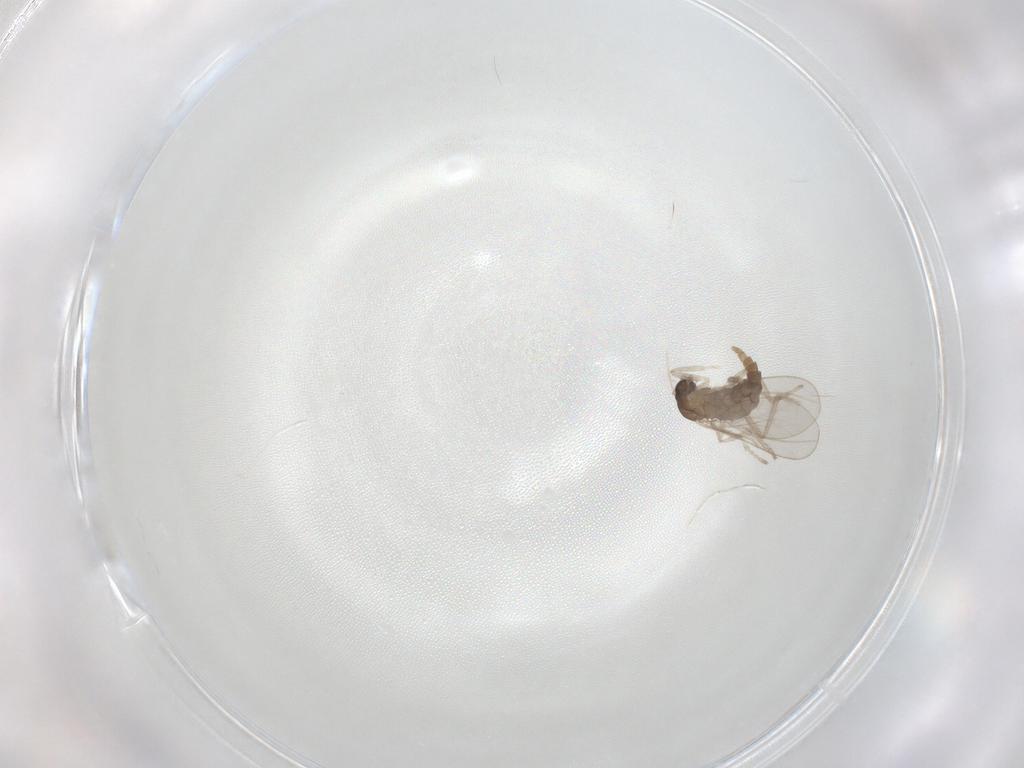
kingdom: Animalia
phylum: Arthropoda
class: Insecta
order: Diptera
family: Cecidomyiidae
